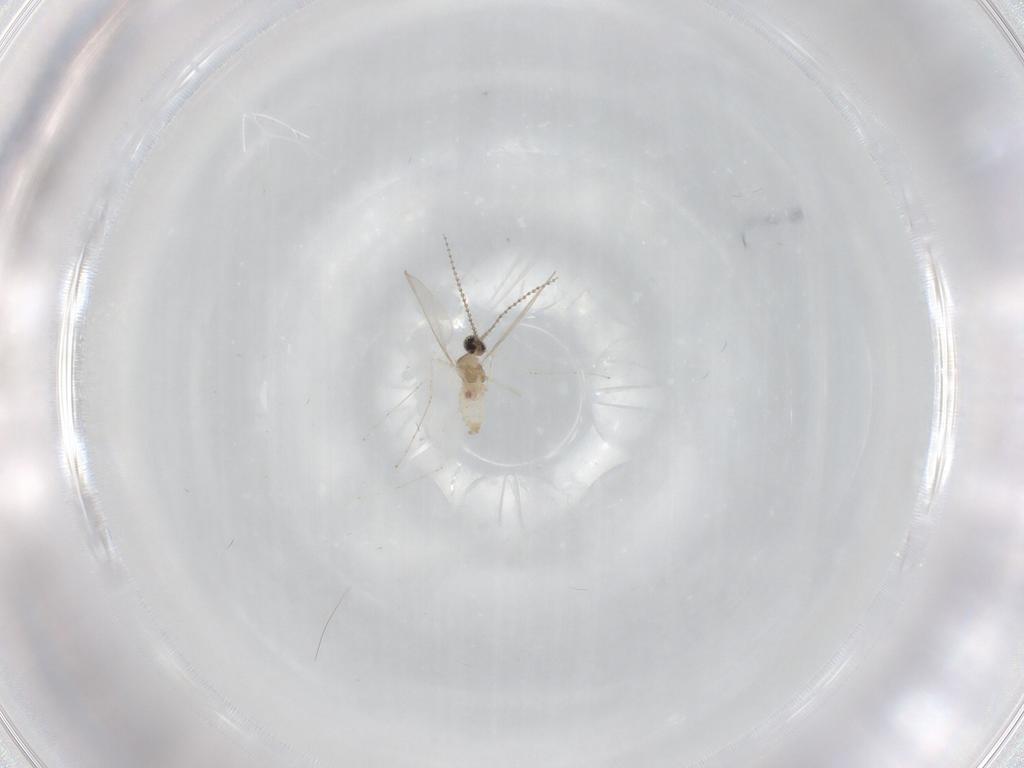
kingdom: Animalia
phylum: Arthropoda
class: Insecta
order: Diptera
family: Cecidomyiidae
